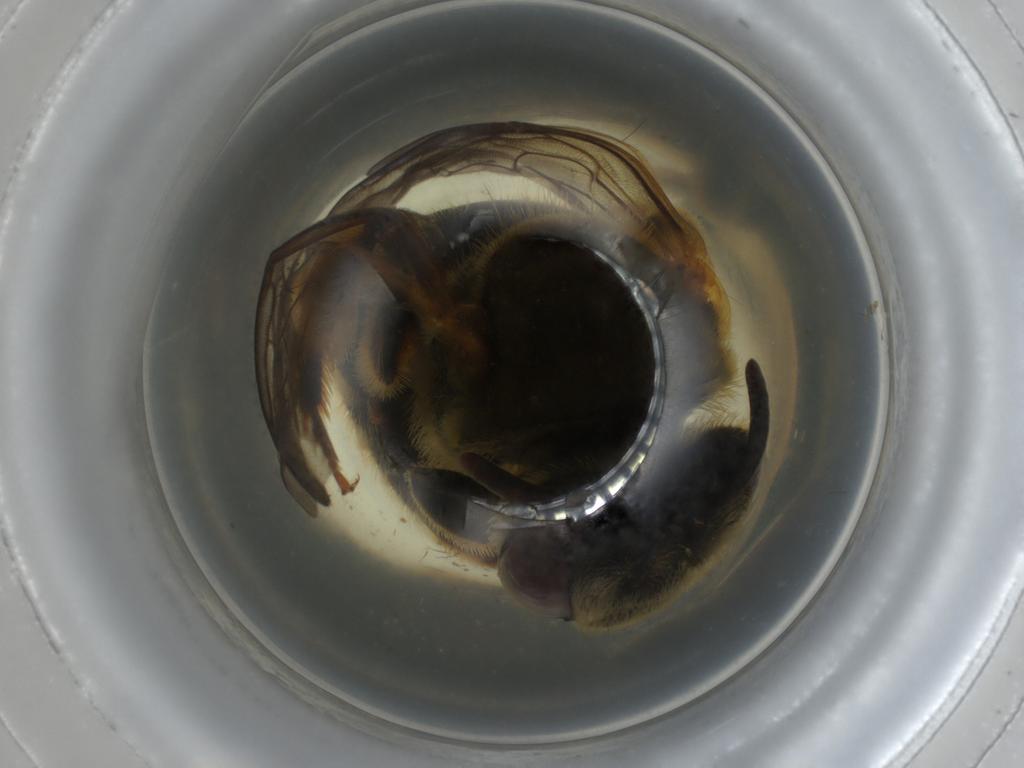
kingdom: Animalia
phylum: Arthropoda
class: Insecta
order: Hymenoptera
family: Halictidae
